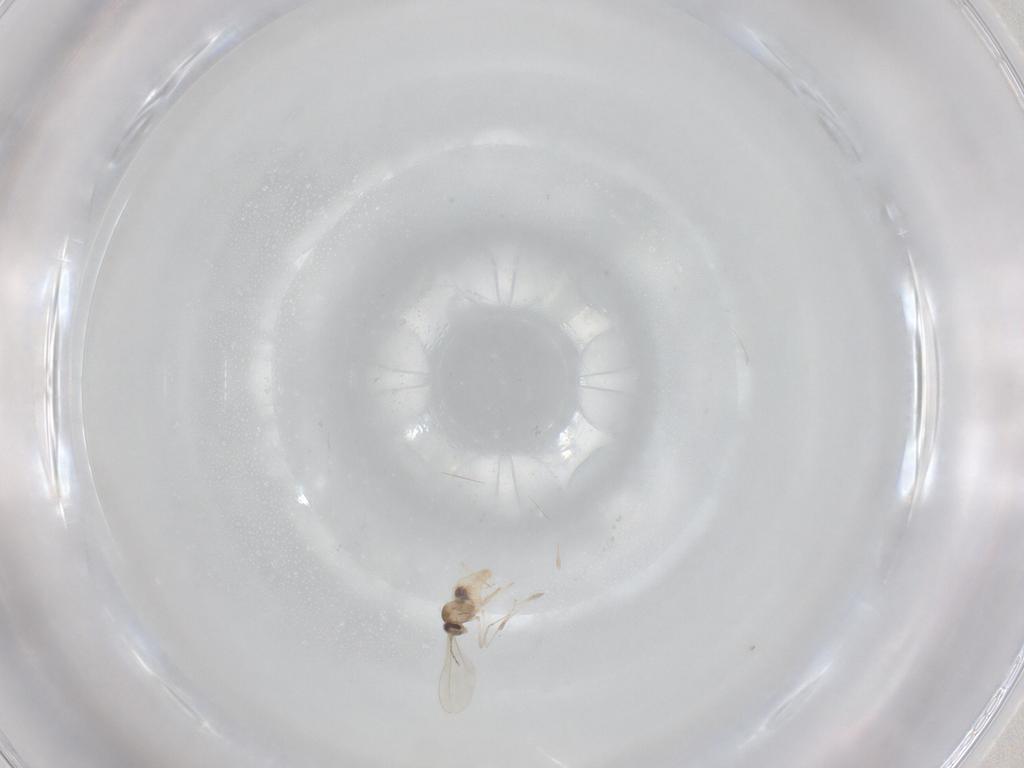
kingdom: Animalia
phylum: Arthropoda
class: Insecta
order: Diptera
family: Cecidomyiidae
